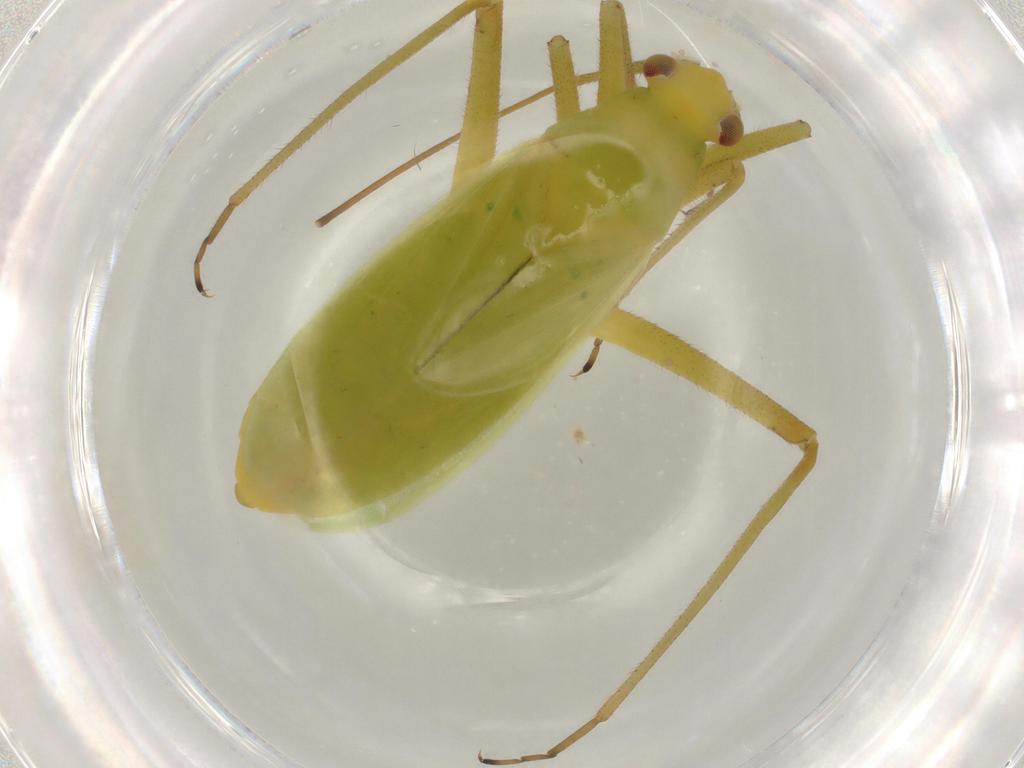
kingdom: Animalia
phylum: Arthropoda
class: Insecta
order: Hemiptera
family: Miridae
